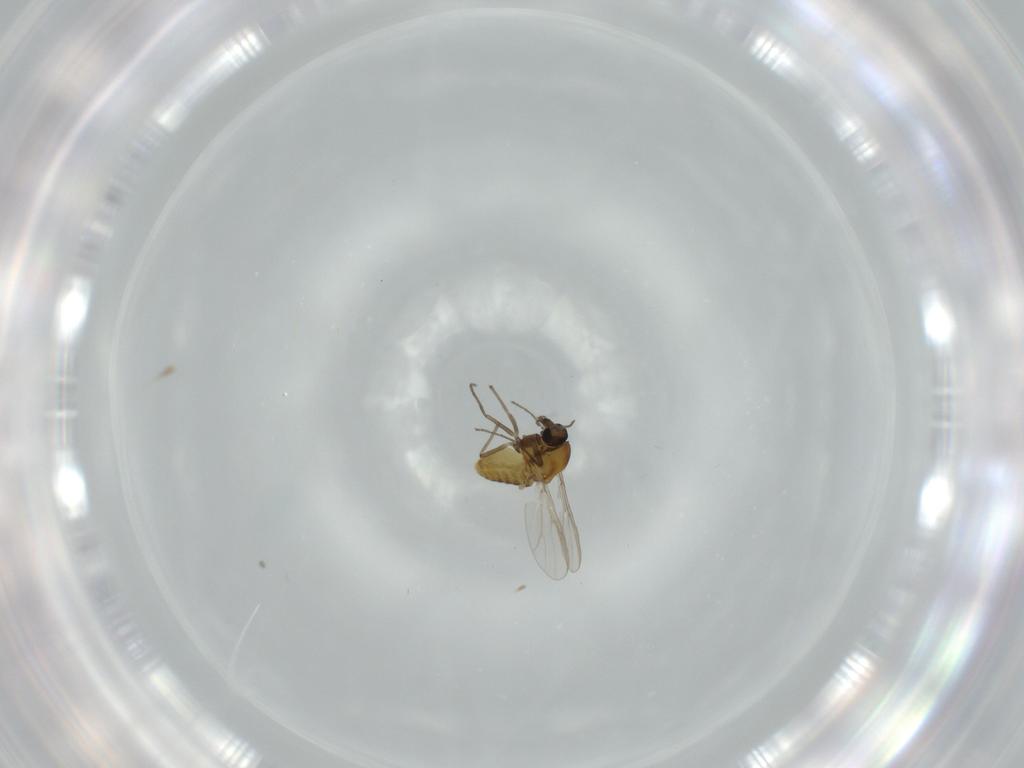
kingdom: Animalia
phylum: Arthropoda
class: Insecta
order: Diptera
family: Chironomidae
